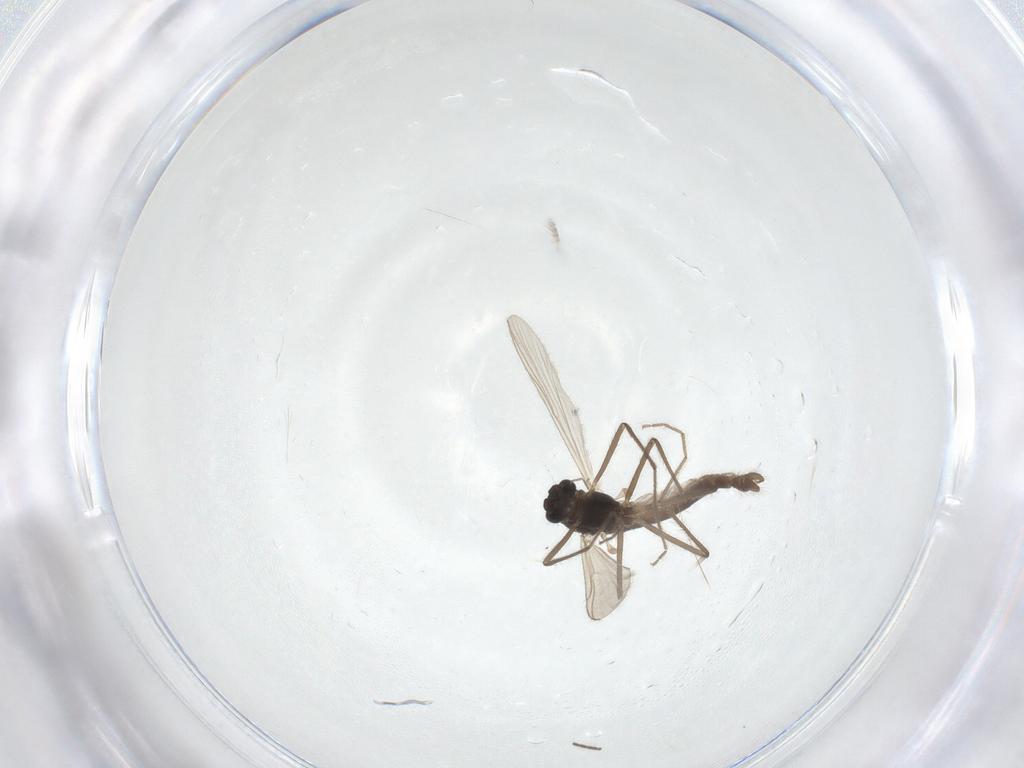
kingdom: Animalia
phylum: Arthropoda
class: Insecta
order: Diptera
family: Chironomidae
